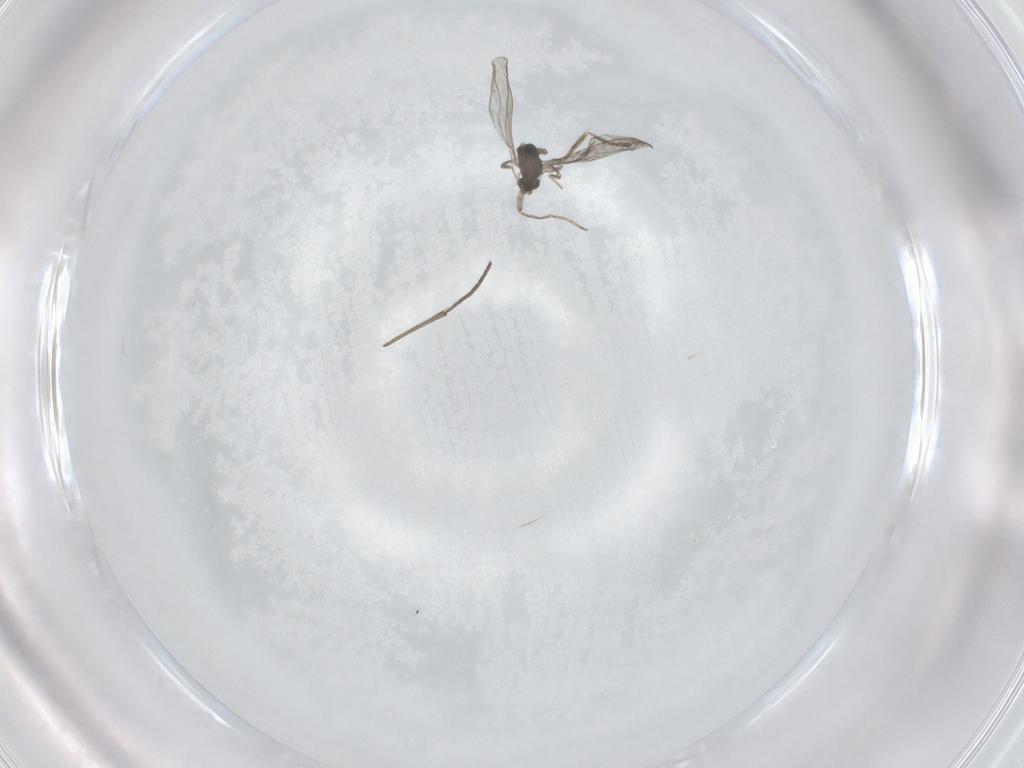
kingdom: Animalia
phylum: Arthropoda
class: Insecta
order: Diptera
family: Cecidomyiidae
